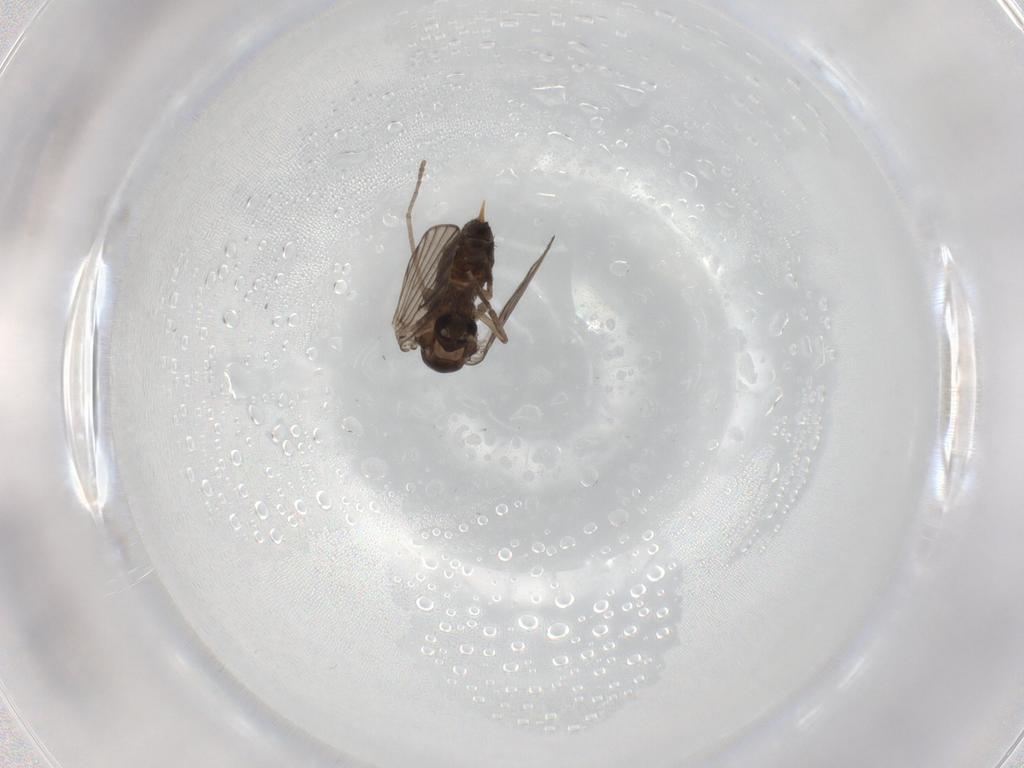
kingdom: Animalia
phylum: Arthropoda
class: Insecta
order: Diptera
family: Psychodidae
